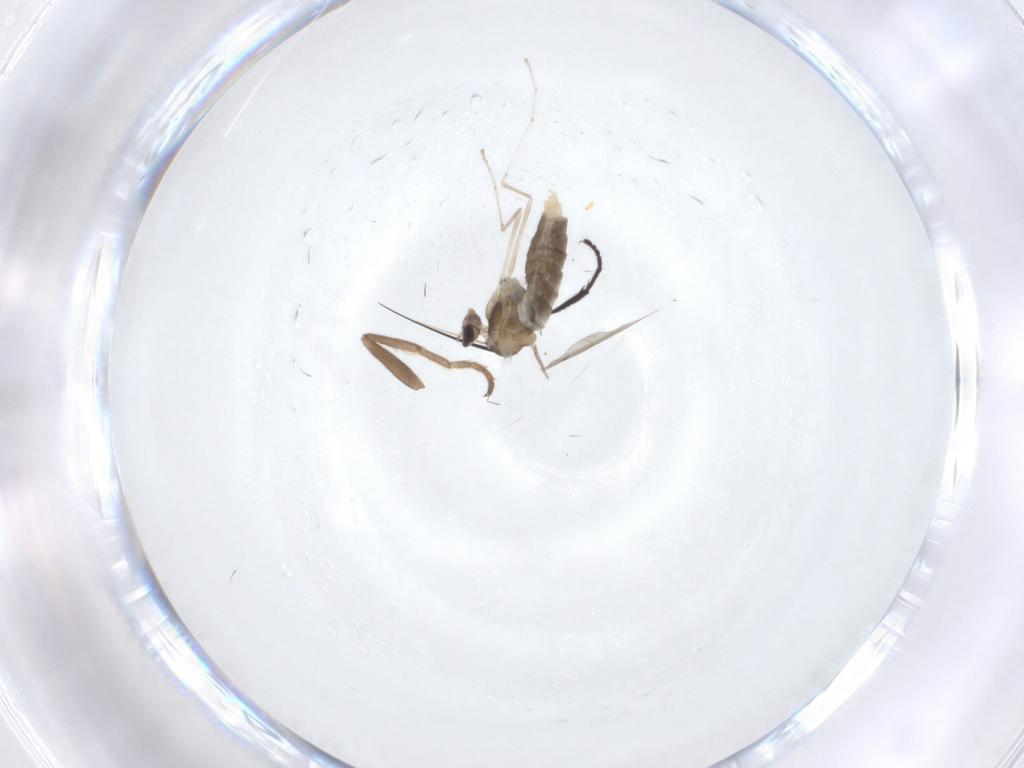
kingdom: Animalia
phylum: Arthropoda
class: Insecta
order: Diptera
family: Cecidomyiidae
